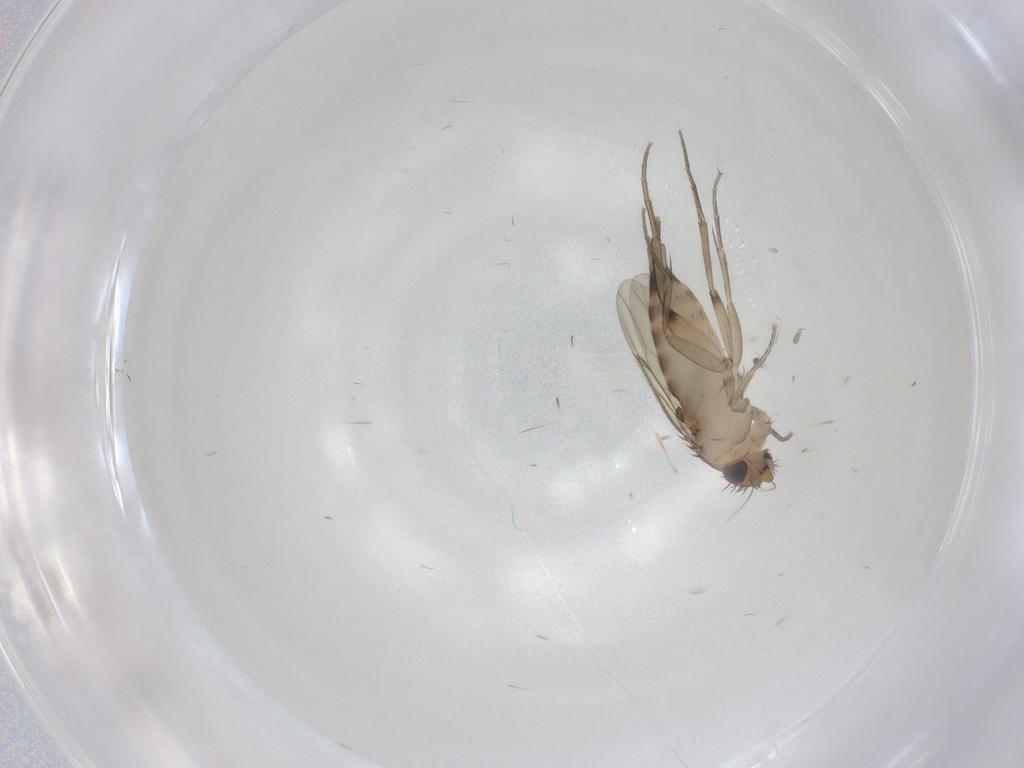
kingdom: Animalia
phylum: Arthropoda
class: Insecta
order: Diptera
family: Cecidomyiidae
